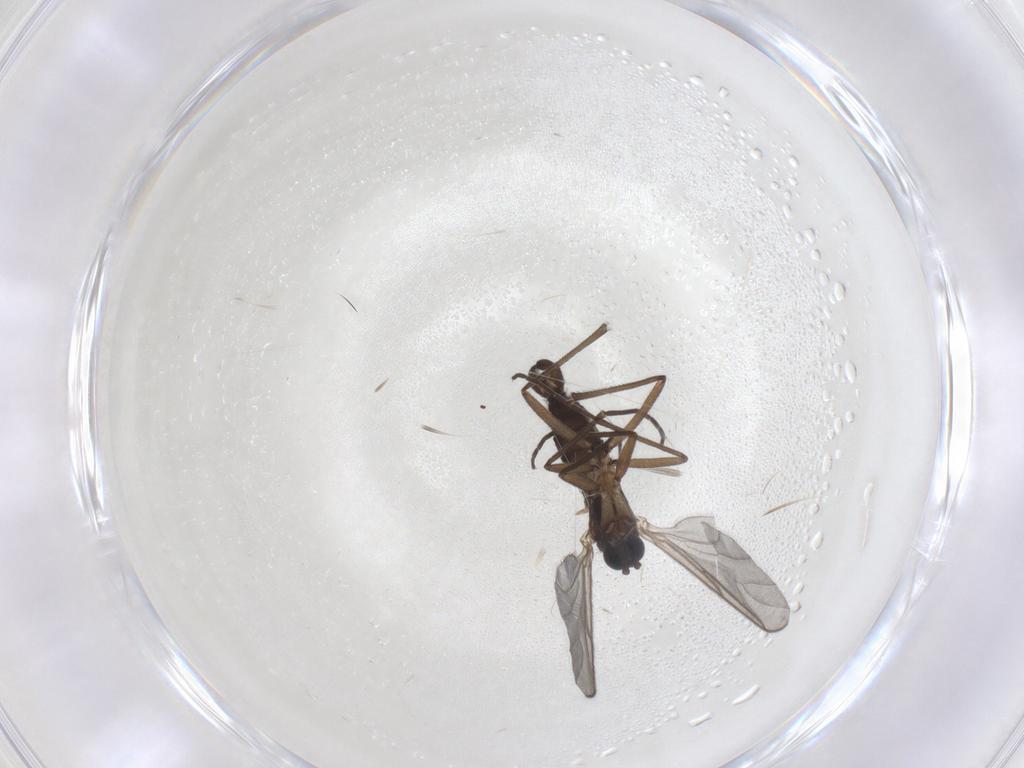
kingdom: Animalia
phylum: Arthropoda
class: Insecta
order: Diptera
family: Sciaridae
